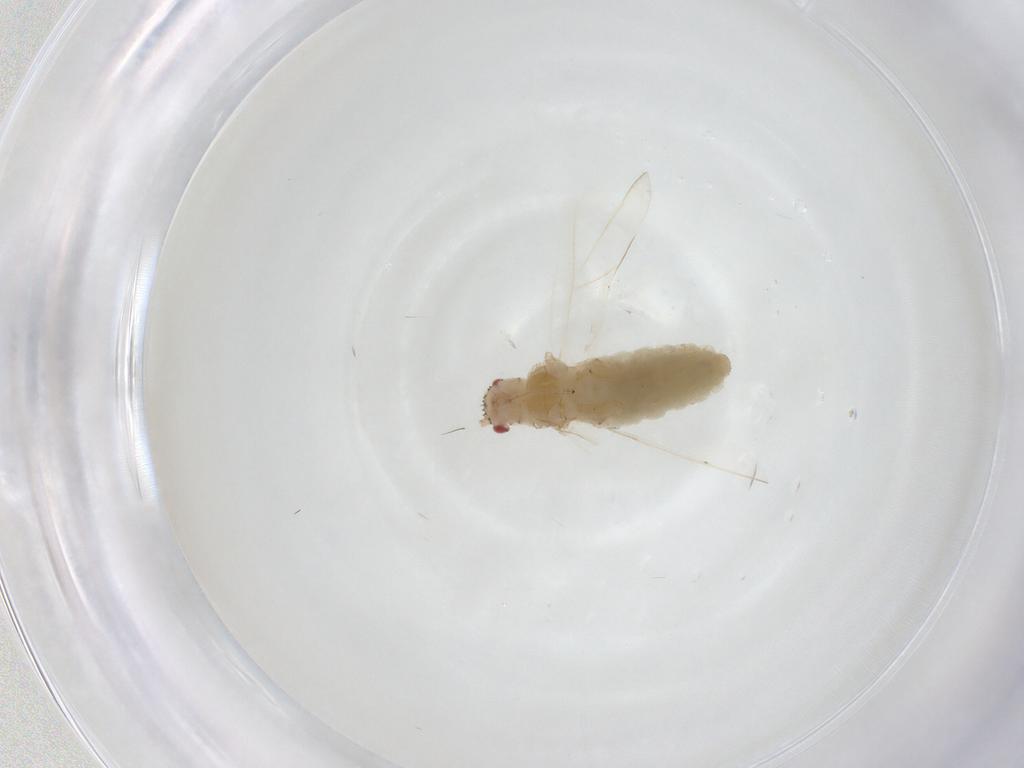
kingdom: Animalia
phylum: Arthropoda
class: Insecta
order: Hemiptera
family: Aphididae
